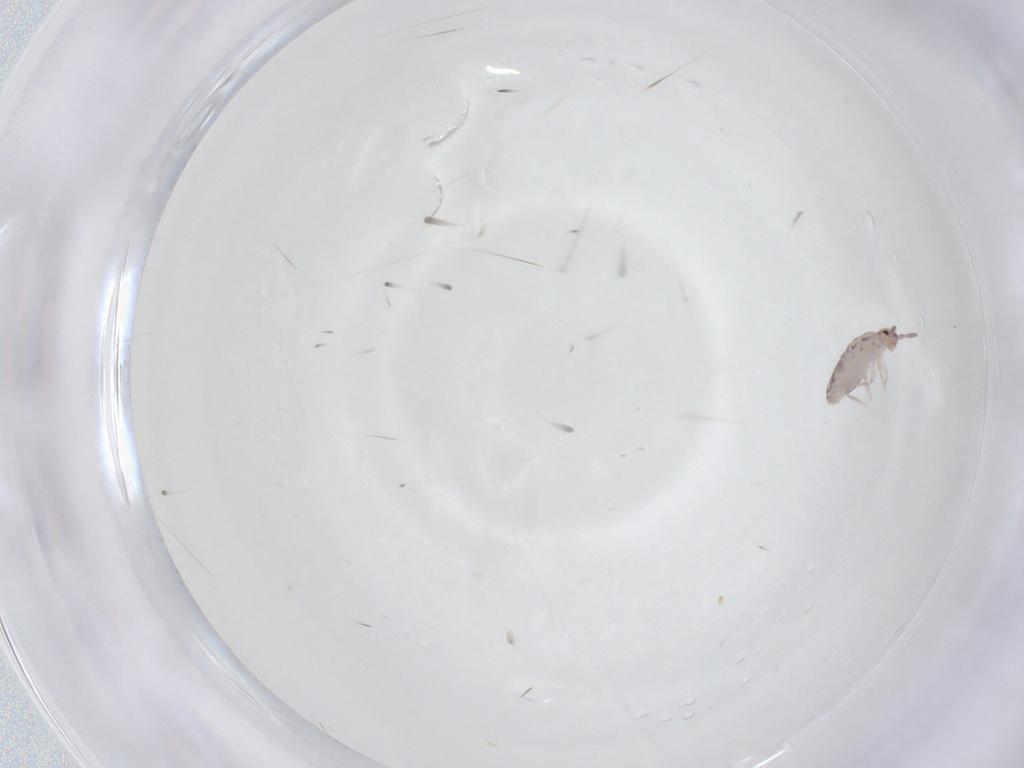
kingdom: Animalia
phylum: Arthropoda
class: Collembola
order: Entomobryomorpha
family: Entomobryidae
